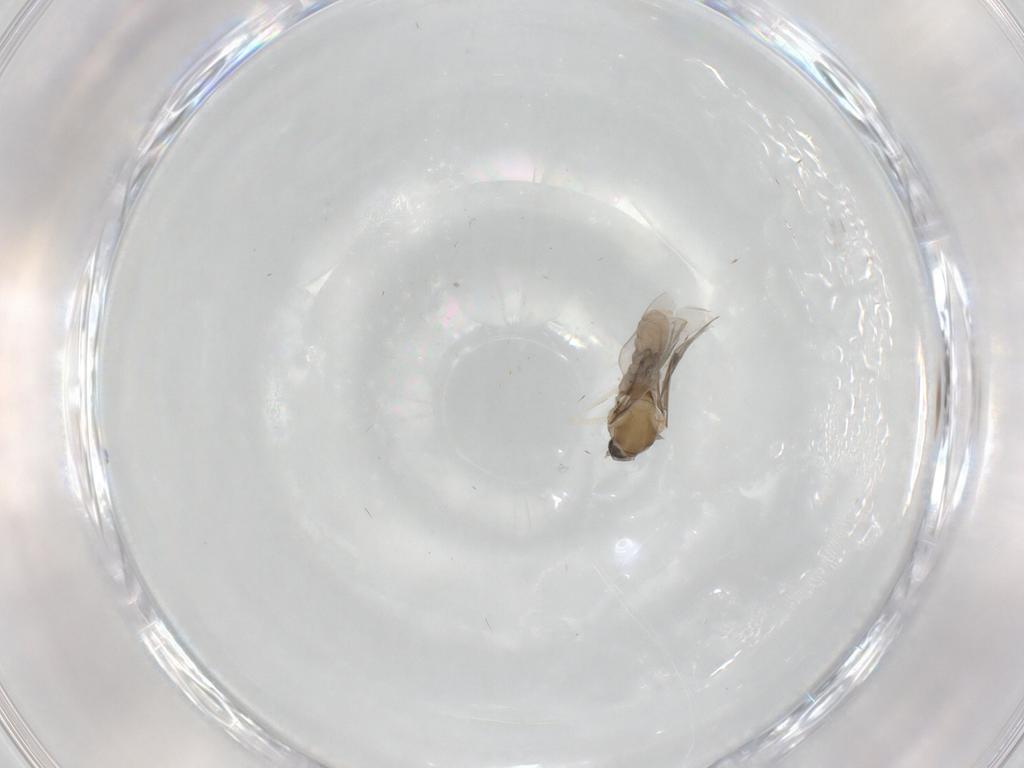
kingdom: Animalia
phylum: Arthropoda
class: Insecta
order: Diptera
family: Cecidomyiidae
